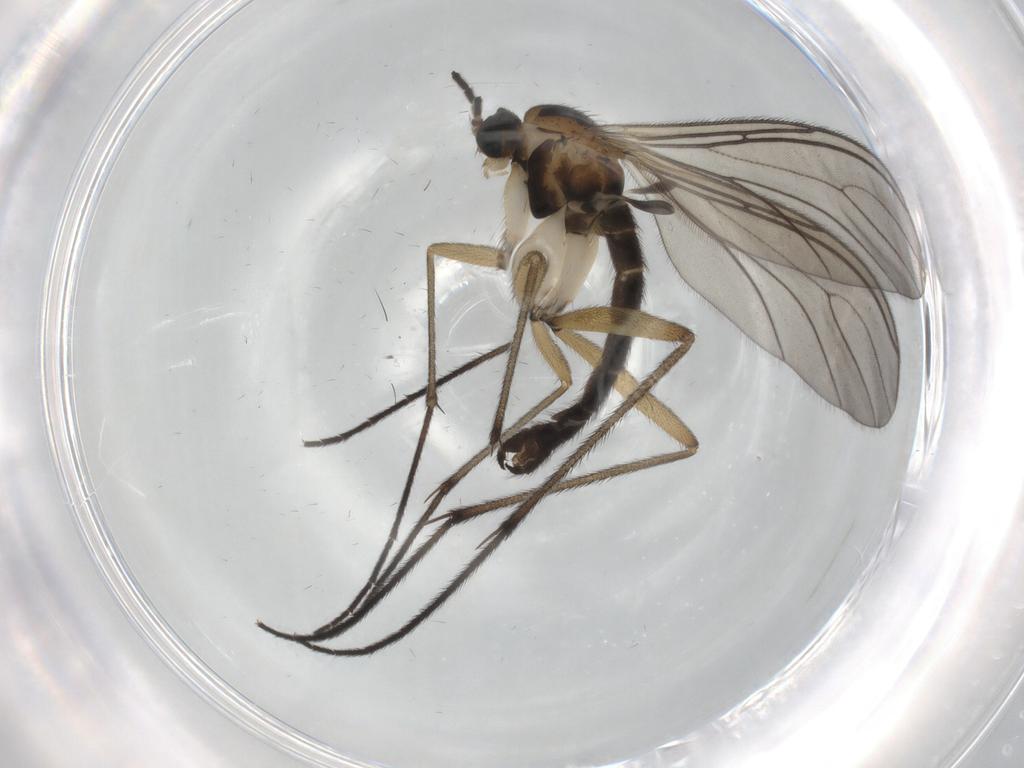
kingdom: Animalia
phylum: Arthropoda
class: Insecta
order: Diptera
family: Sciaridae
